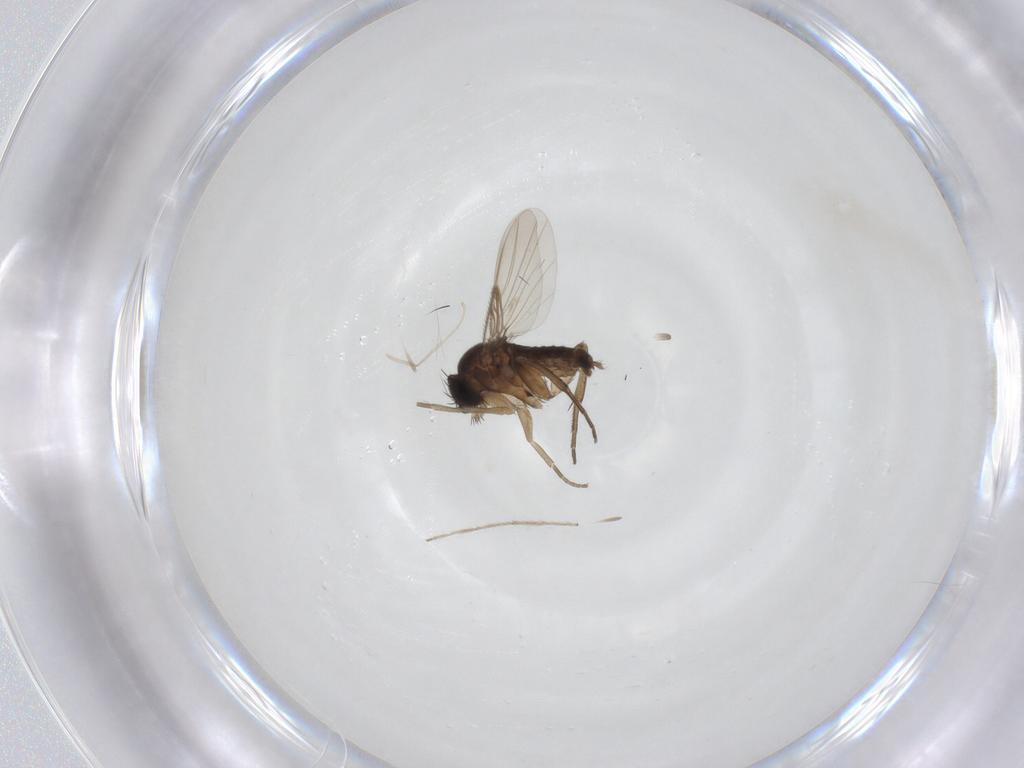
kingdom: Animalia
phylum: Arthropoda
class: Insecta
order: Diptera
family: Phoridae
